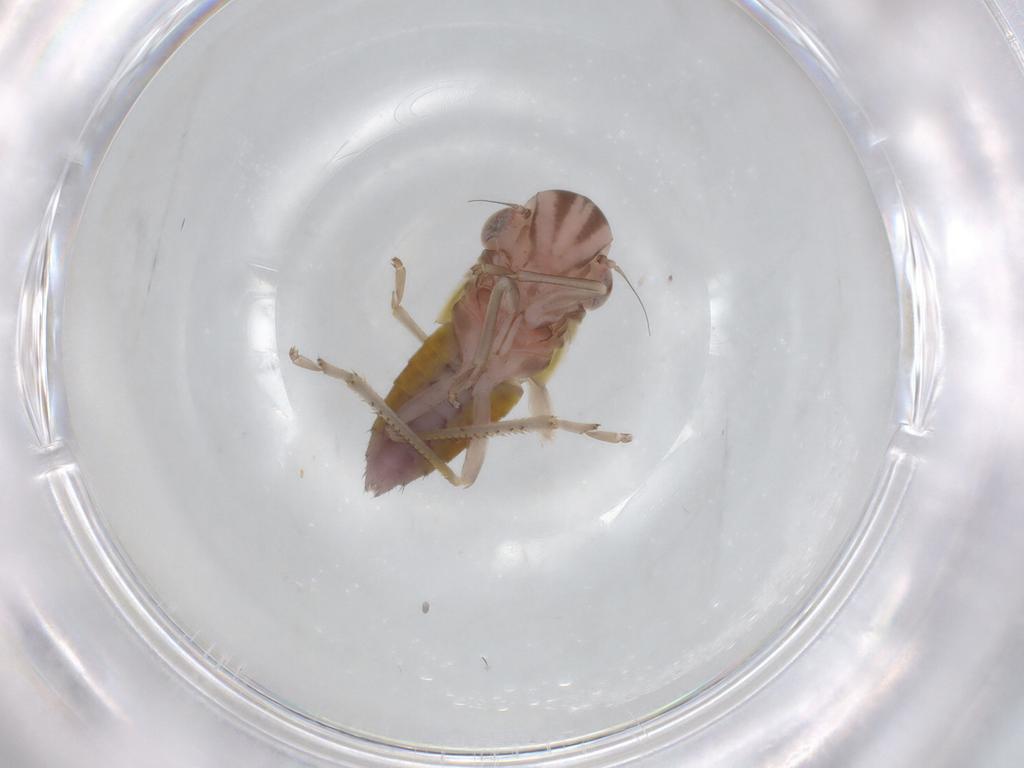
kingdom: Animalia
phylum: Arthropoda
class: Insecta
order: Hemiptera
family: Cicadellidae
